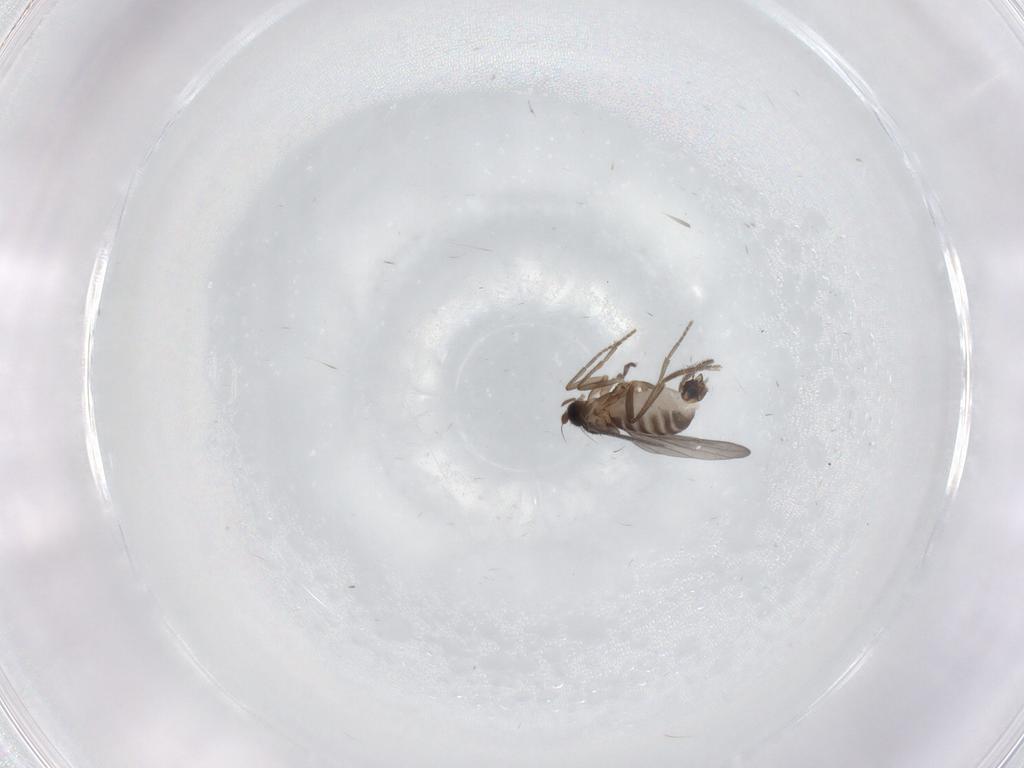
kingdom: Animalia
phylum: Arthropoda
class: Insecta
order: Diptera
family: Phoridae
